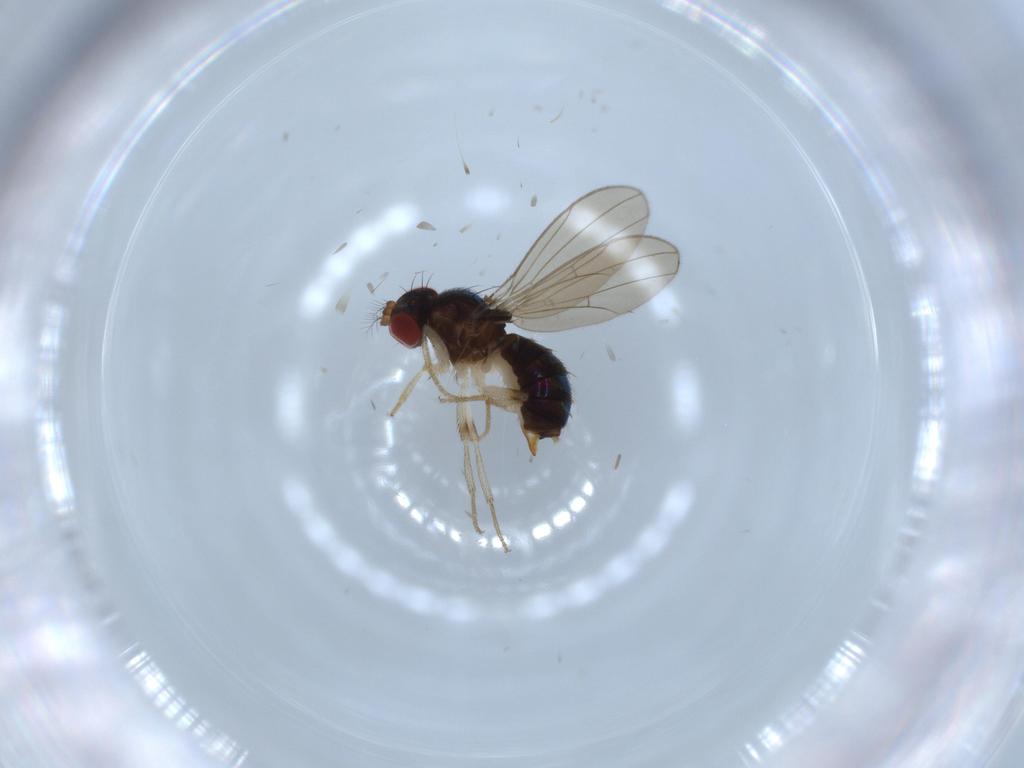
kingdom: Animalia
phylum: Arthropoda
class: Insecta
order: Diptera
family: Drosophilidae
